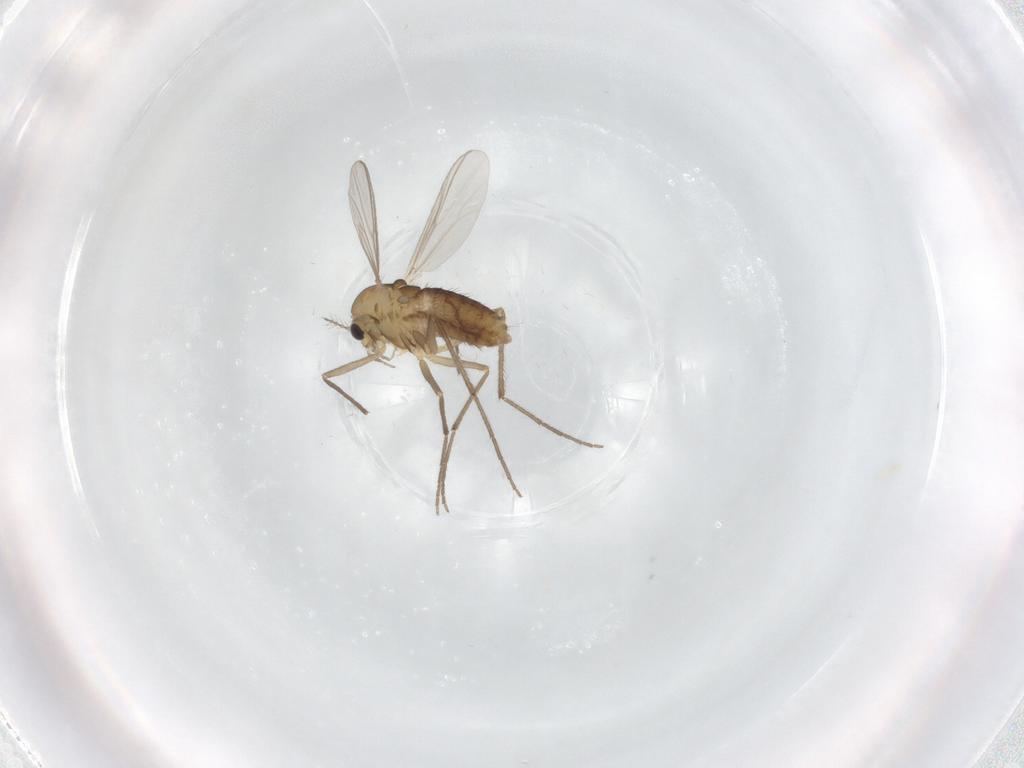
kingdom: Animalia
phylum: Arthropoda
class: Insecta
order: Diptera
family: Chironomidae
